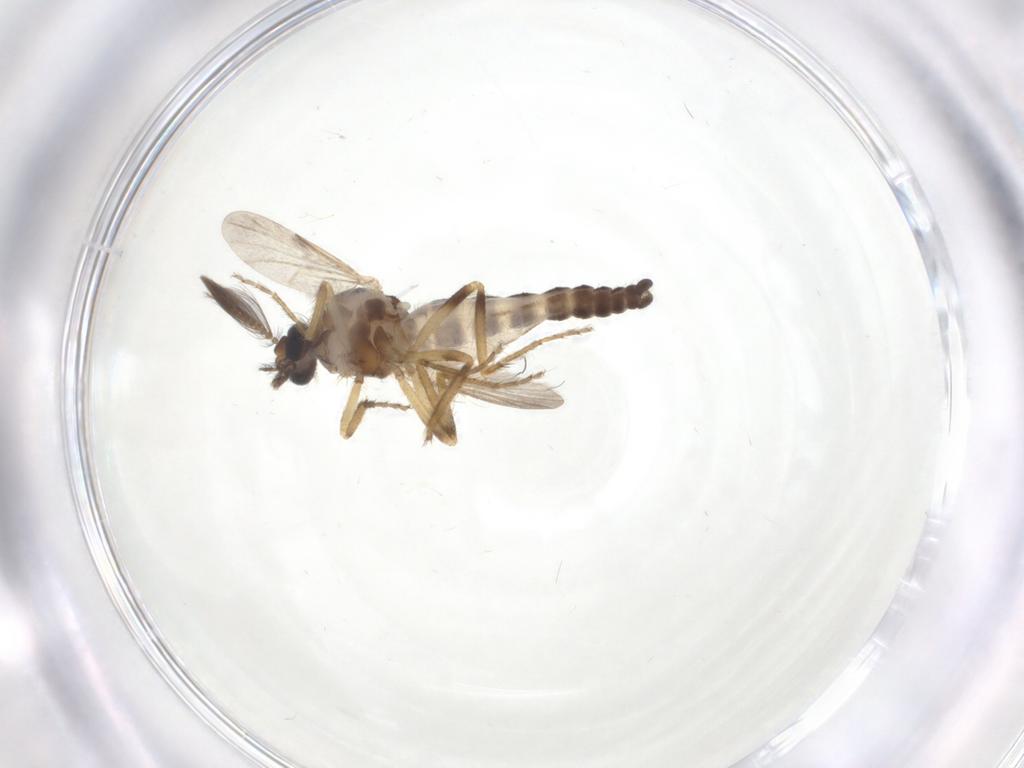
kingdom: Animalia
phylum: Arthropoda
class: Insecta
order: Diptera
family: Ceratopogonidae
